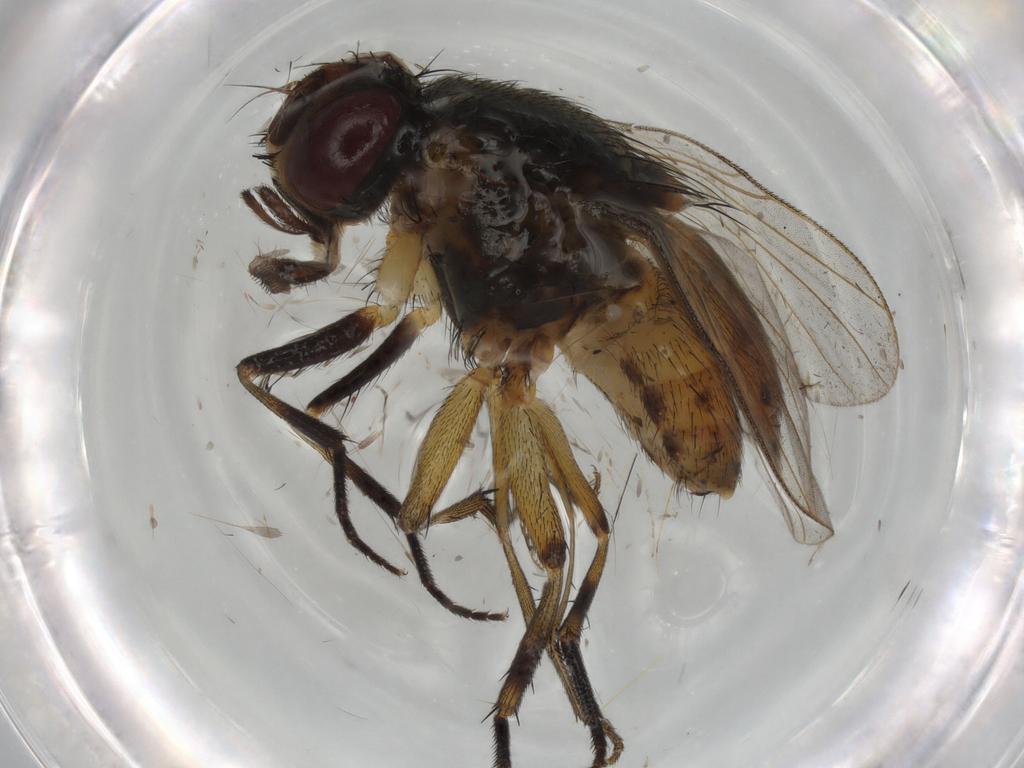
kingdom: Animalia
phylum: Arthropoda
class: Insecta
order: Diptera
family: Muscidae
